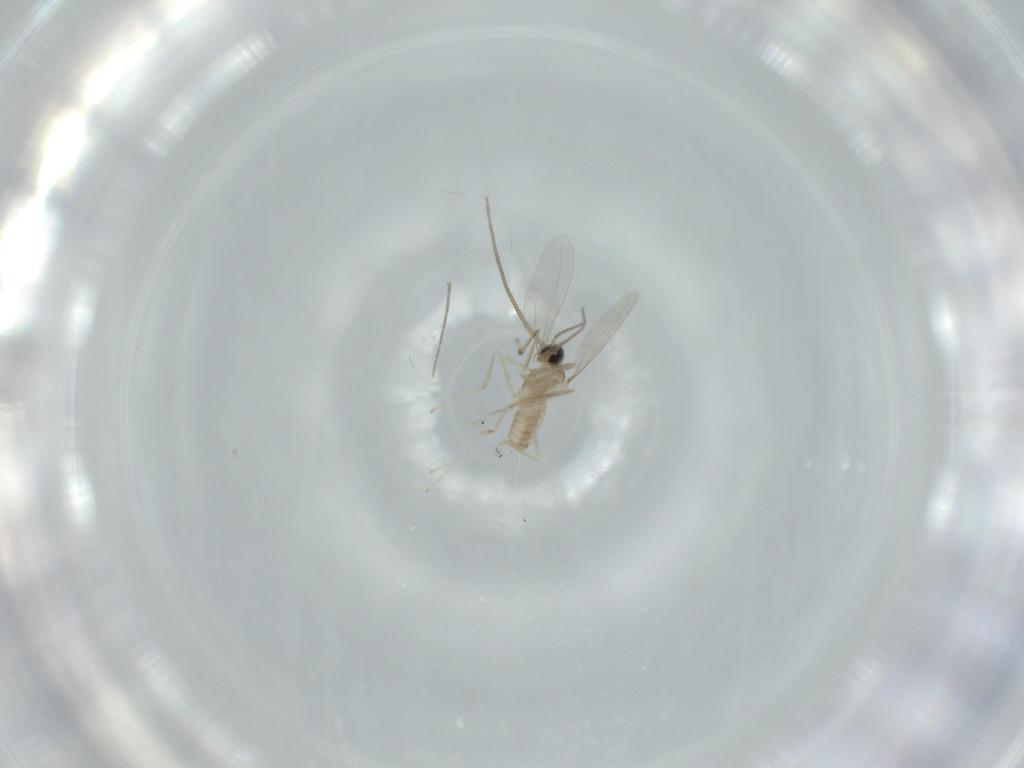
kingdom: Animalia
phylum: Arthropoda
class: Insecta
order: Diptera
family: Cecidomyiidae
